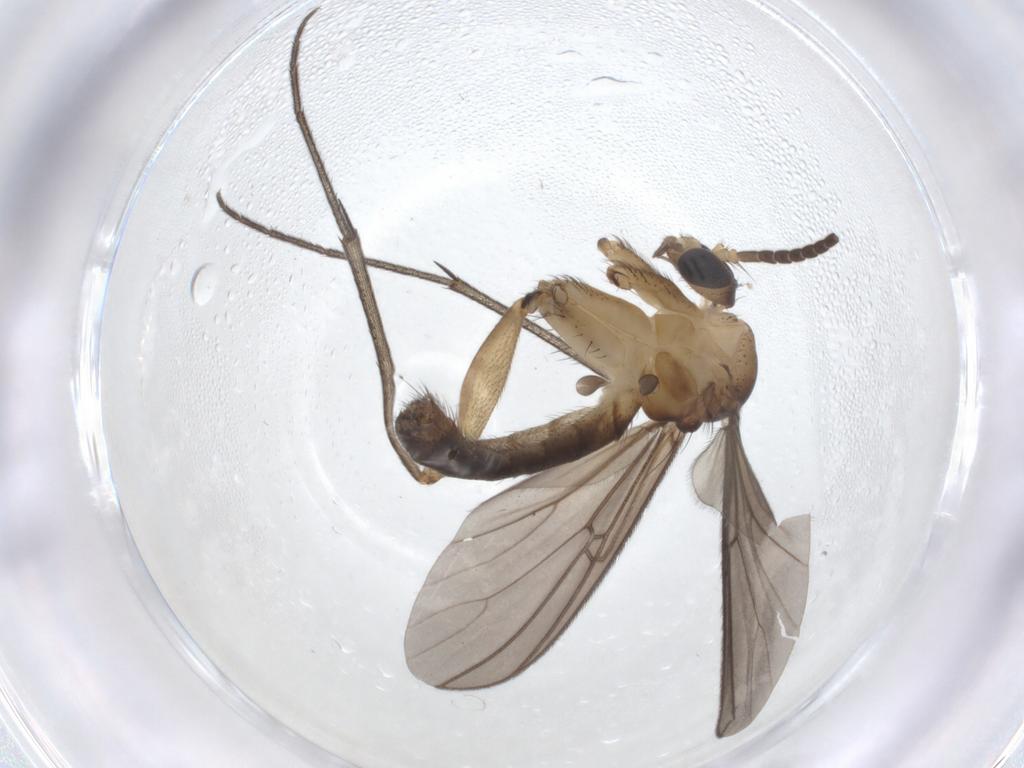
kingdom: Animalia
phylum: Arthropoda
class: Insecta
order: Diptera
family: Mycetophilidae
